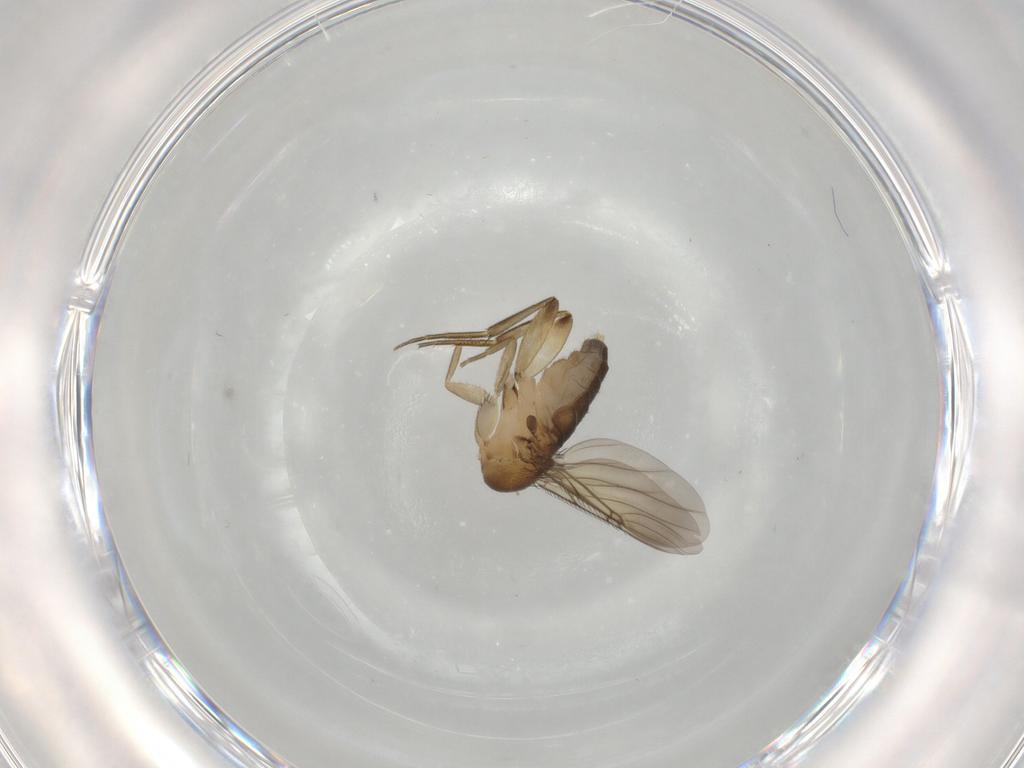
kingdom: Animalia
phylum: Arthropoda
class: Insecta
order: Diptera
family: Phoridae
